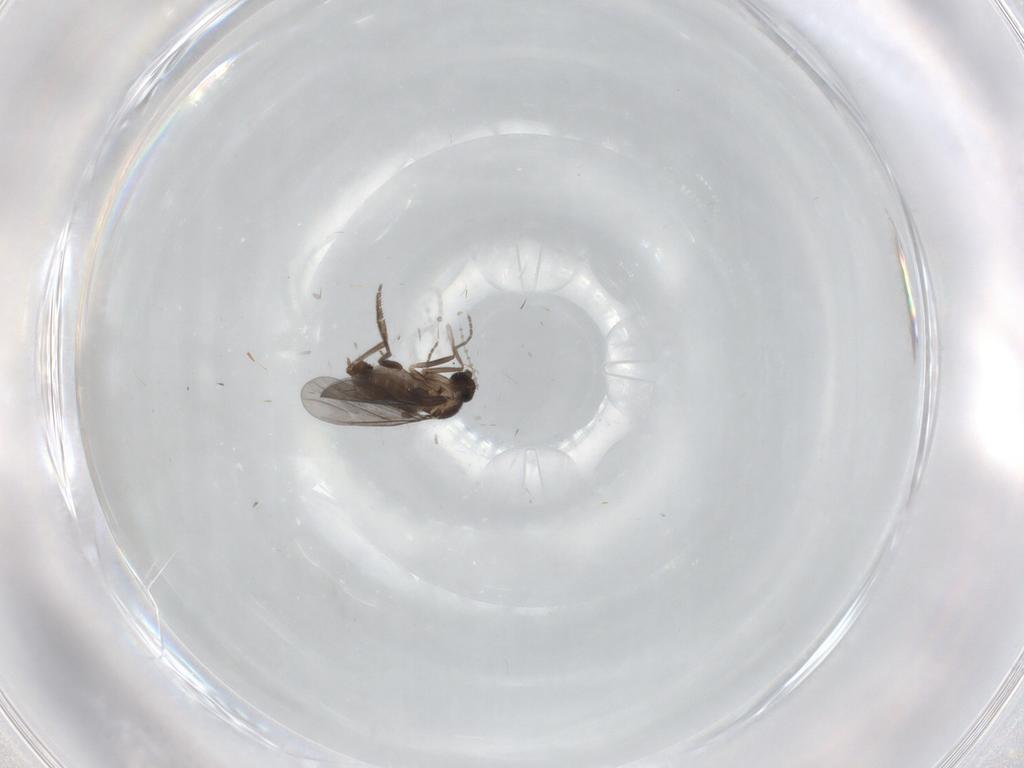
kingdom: Animalia
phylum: Arthropoda
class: Insecta
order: Diptera
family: Phoridae
